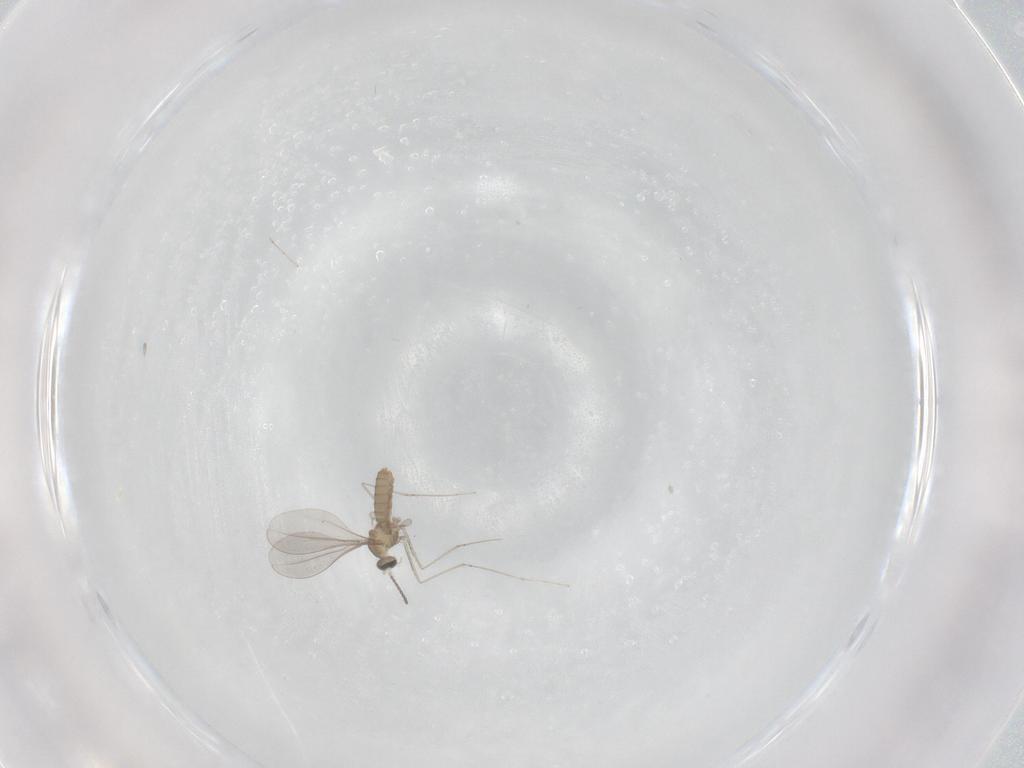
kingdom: Animalia
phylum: Arthropoda
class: Insecta
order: Diptera
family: Cecidomyiidae
